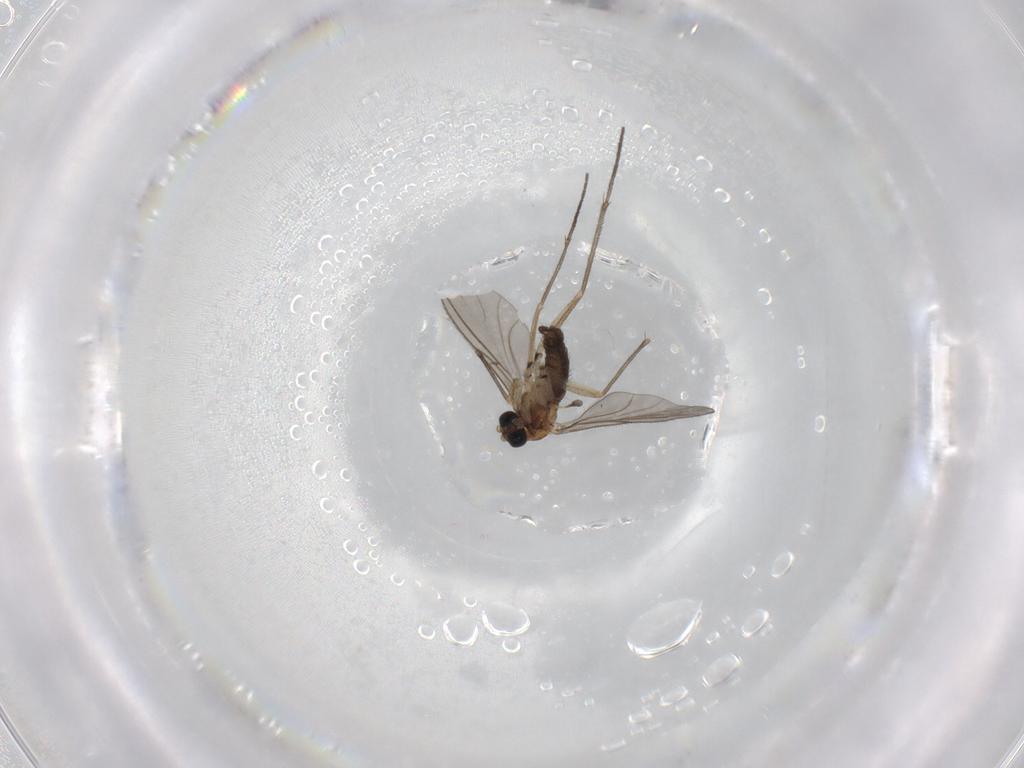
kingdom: Animalia
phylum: Arthropoda
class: Insecta
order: Diptera
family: Sciaridae
